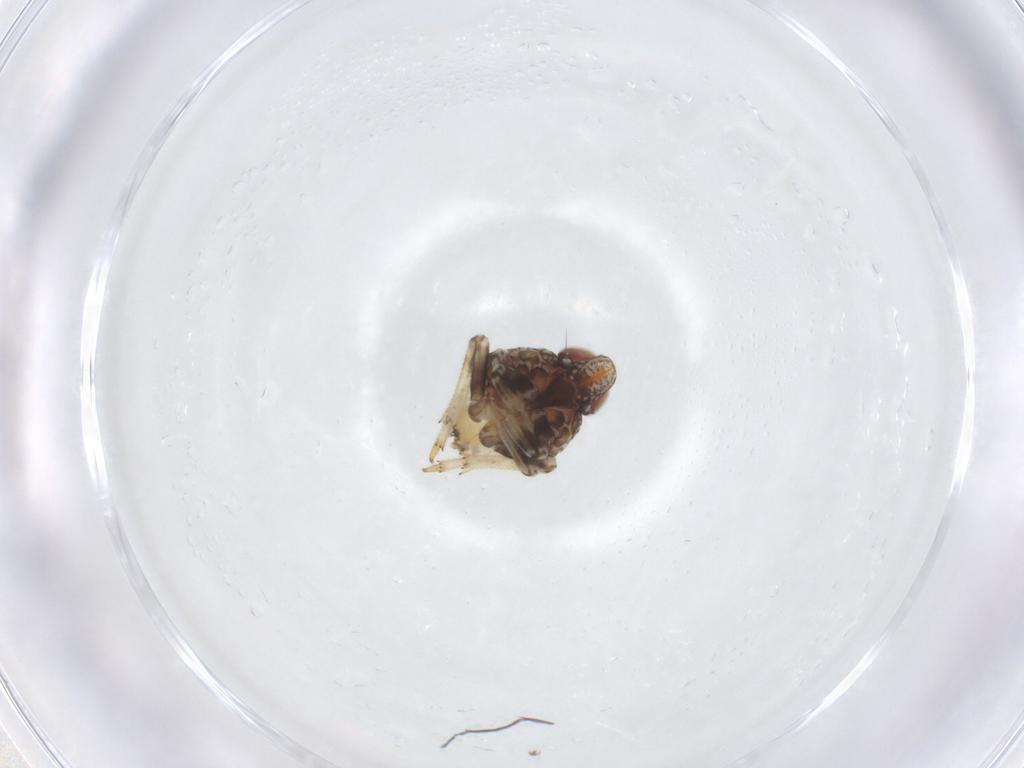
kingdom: Animalia
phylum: Arthropoda
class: Insecta
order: Hemiptera
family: Issidae
